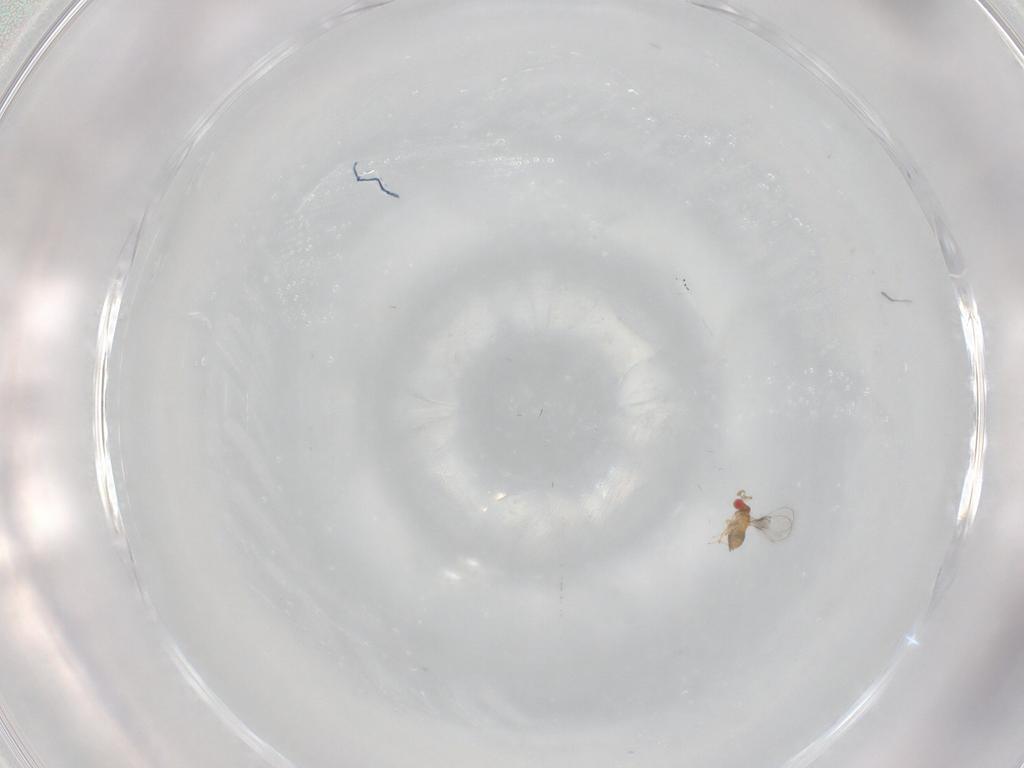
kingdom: Animalia
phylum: Arthropoda
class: Insecta
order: Hymenoptera
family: Trichogrammatidae
